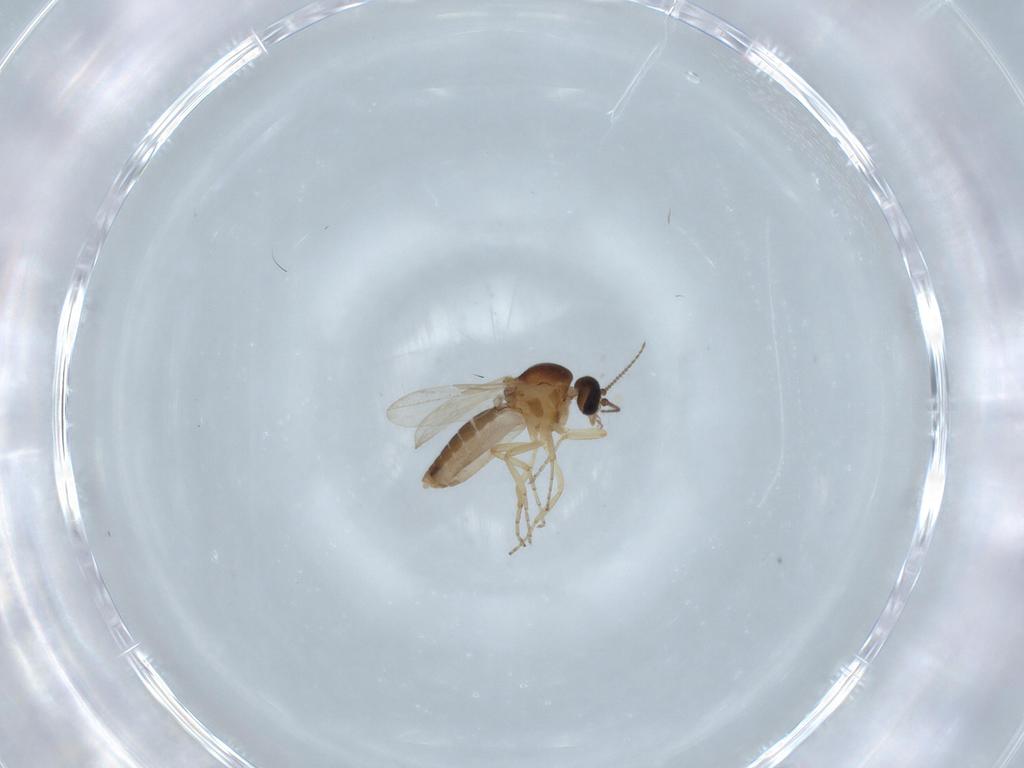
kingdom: Animalia
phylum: Arthropoda
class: Insecta
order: Diptera
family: Ceratopogonidae
